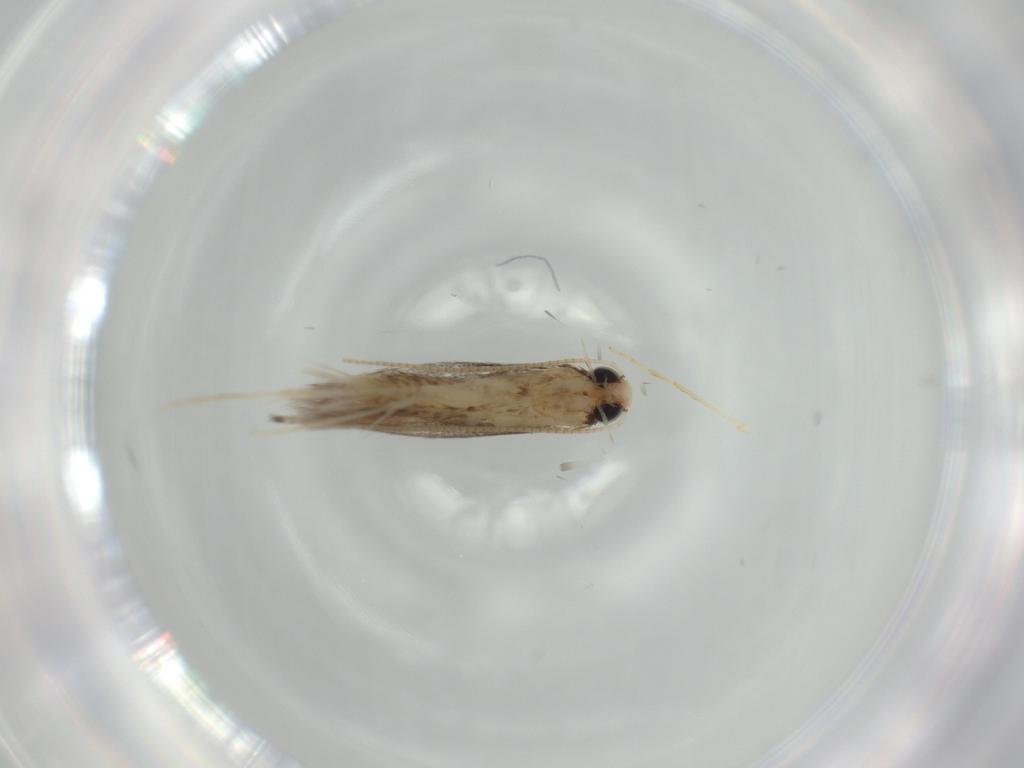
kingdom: Animalia
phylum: Arthropoda
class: Insecta
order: Lepidoptera
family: Gracillariidae
